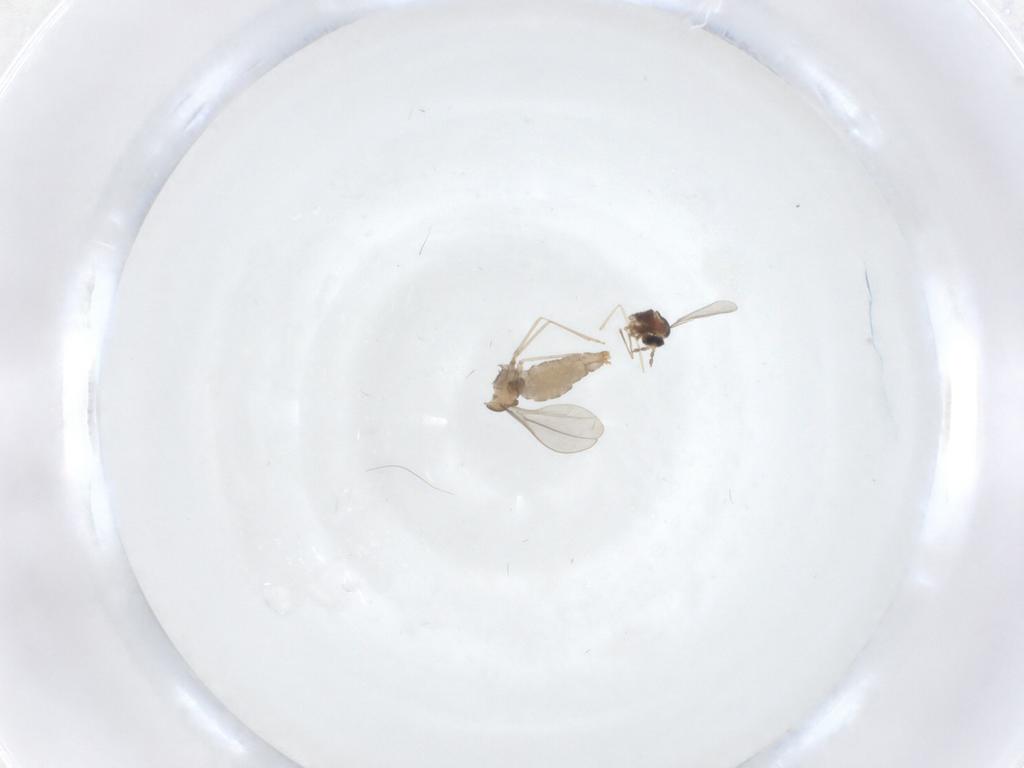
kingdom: Animalia
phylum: Arthropoda
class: Insecta
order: Diptera
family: Cecidomyiidae
